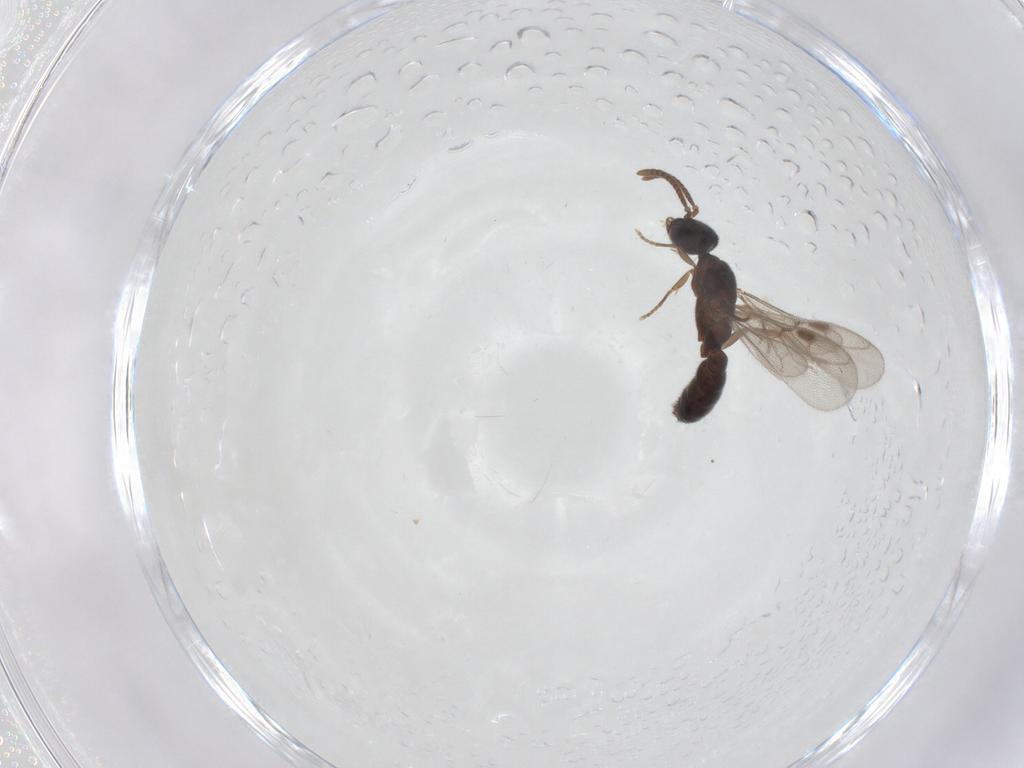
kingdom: Animalia
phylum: Arthropoda
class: Insecta
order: Hymenoptera
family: Formicidae
